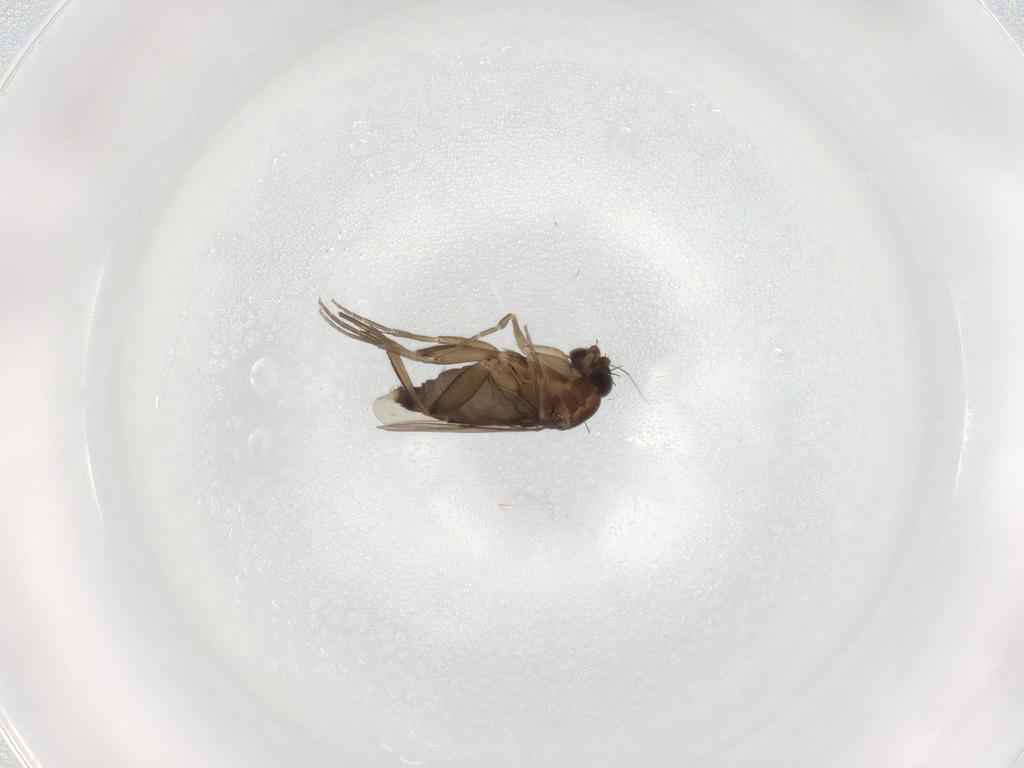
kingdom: Animalia
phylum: Arthropoda
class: Insecta
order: Diptera
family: Phoridae
